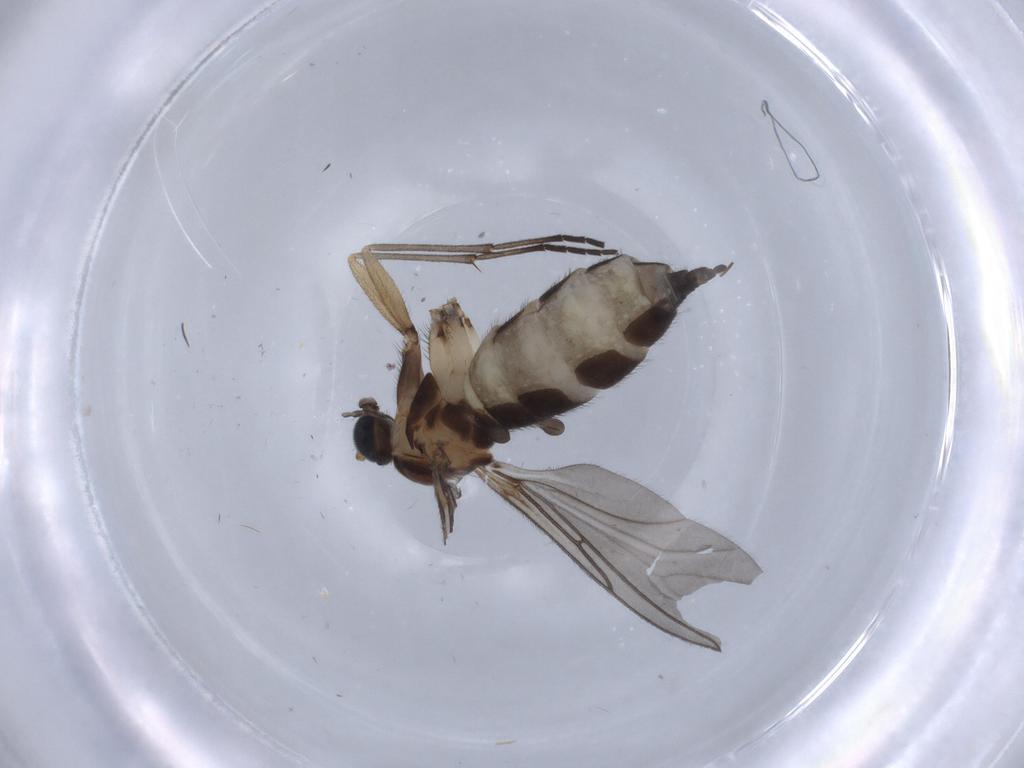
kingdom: Animalia
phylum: Arthropoda
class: Insecta
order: Diptera
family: Sciaridae
